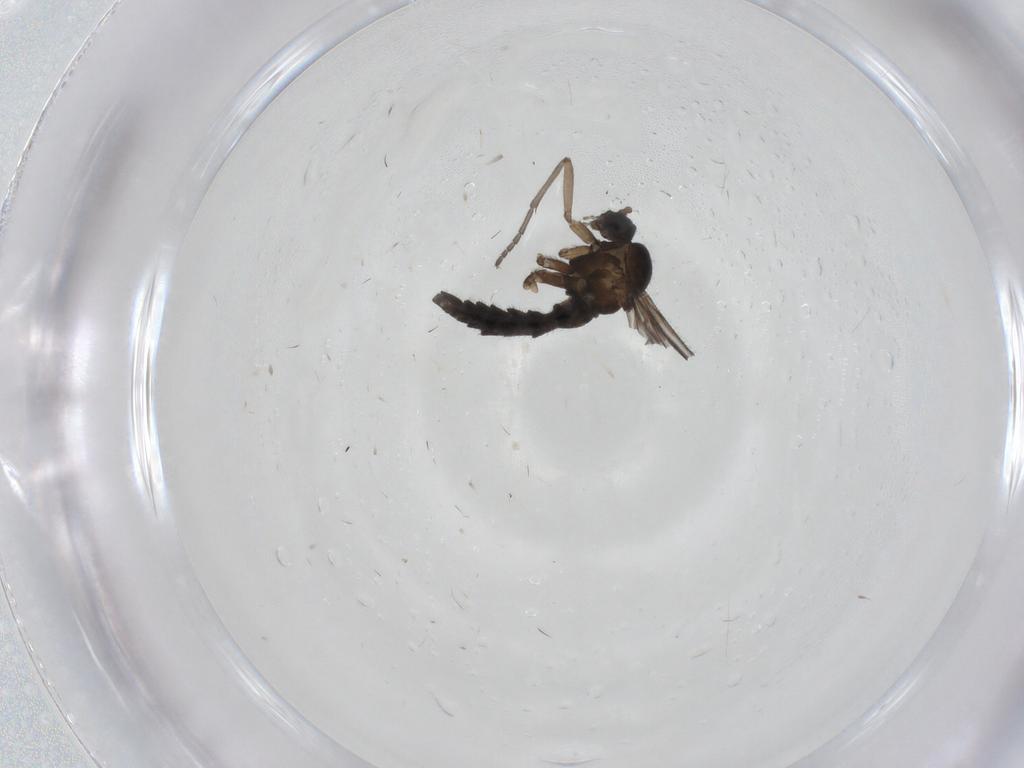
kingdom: Animalia
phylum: Arthropoda
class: Insecta
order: Diptera
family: Sciaridae
